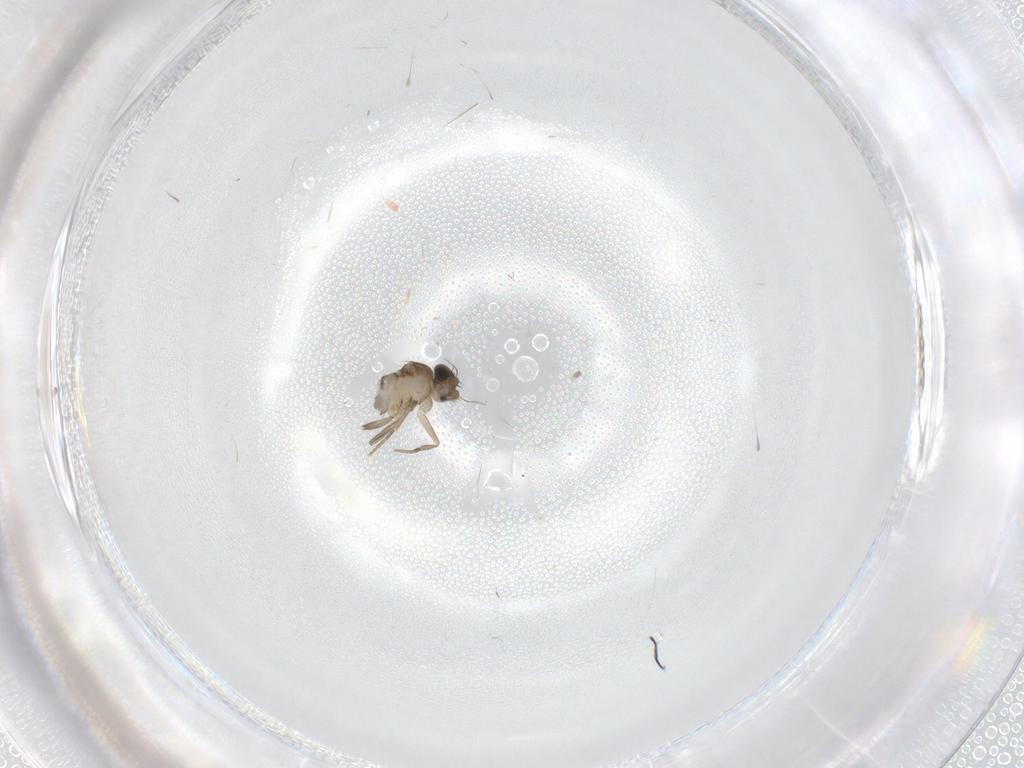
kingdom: Animalia
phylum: Arthropoda
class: Insecta
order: Diptera
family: Phoridae
